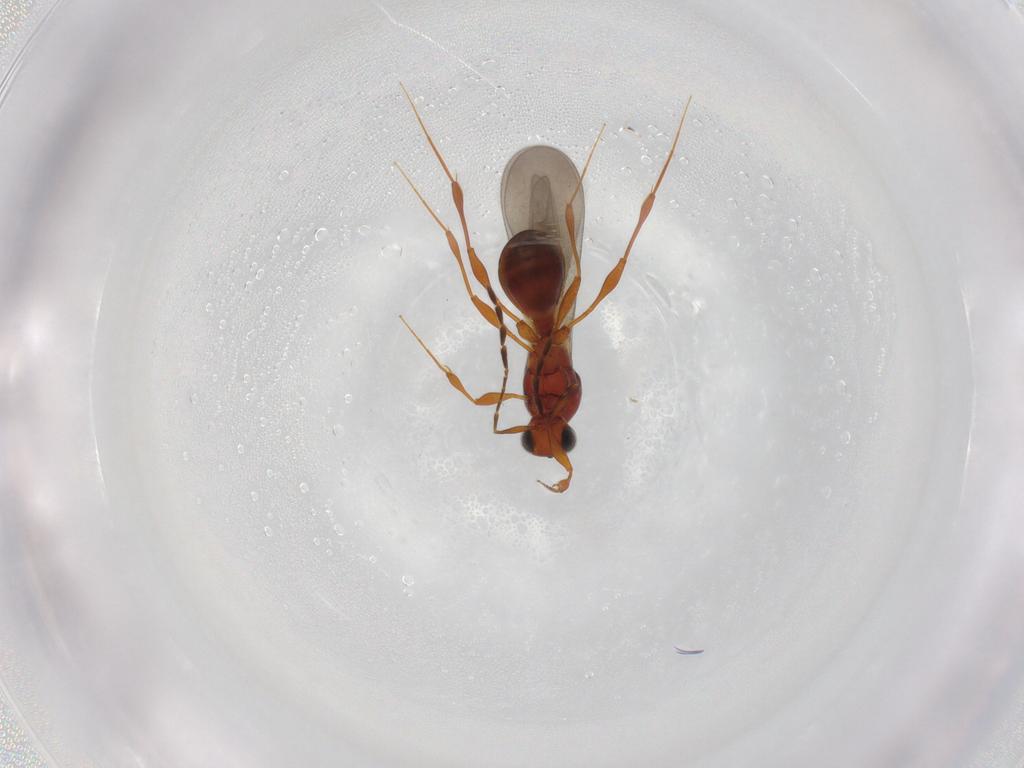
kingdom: Animalia
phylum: Arthropoda
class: Insecta
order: Hymenoptera
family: Platygastridae
